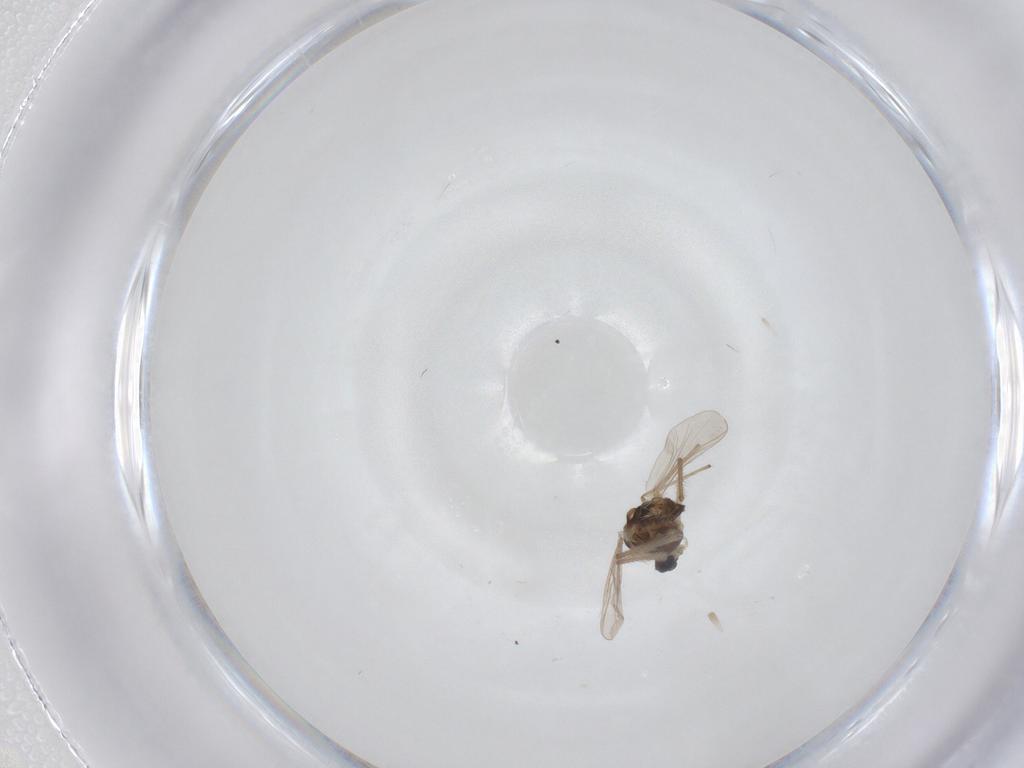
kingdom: Animalia
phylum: Arthropoda
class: Insecta
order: Diptera
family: Chironomidae
